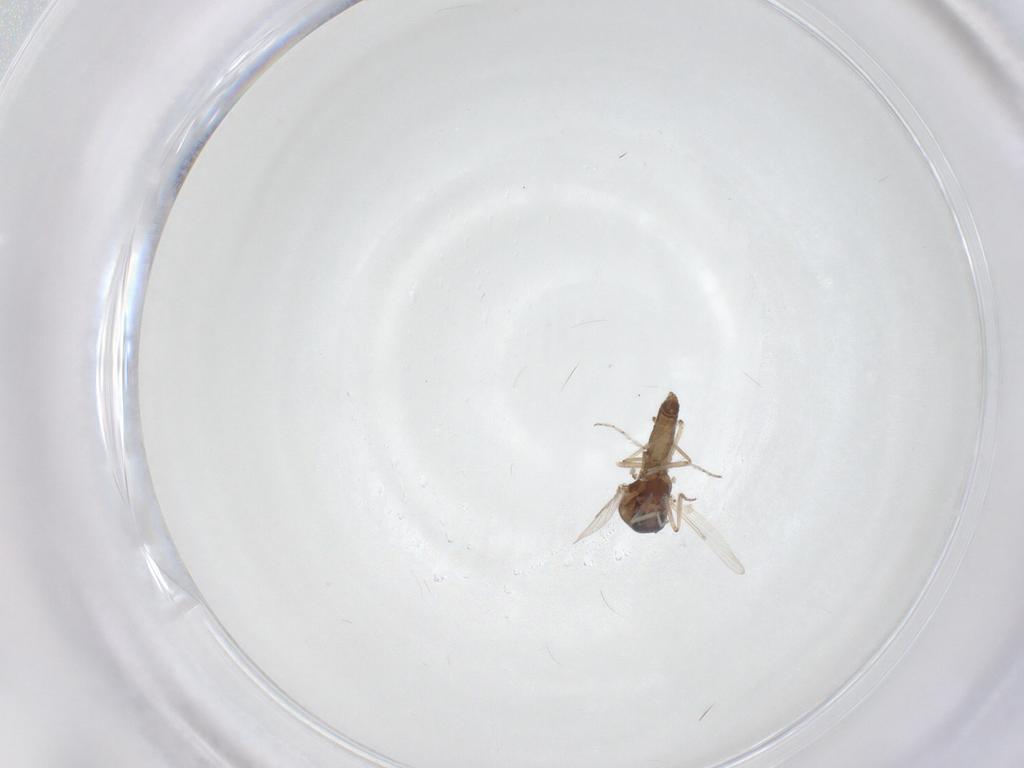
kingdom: Animalia
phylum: Arthropoda
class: Insecta
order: Diptera
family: Ceratopogonidae
